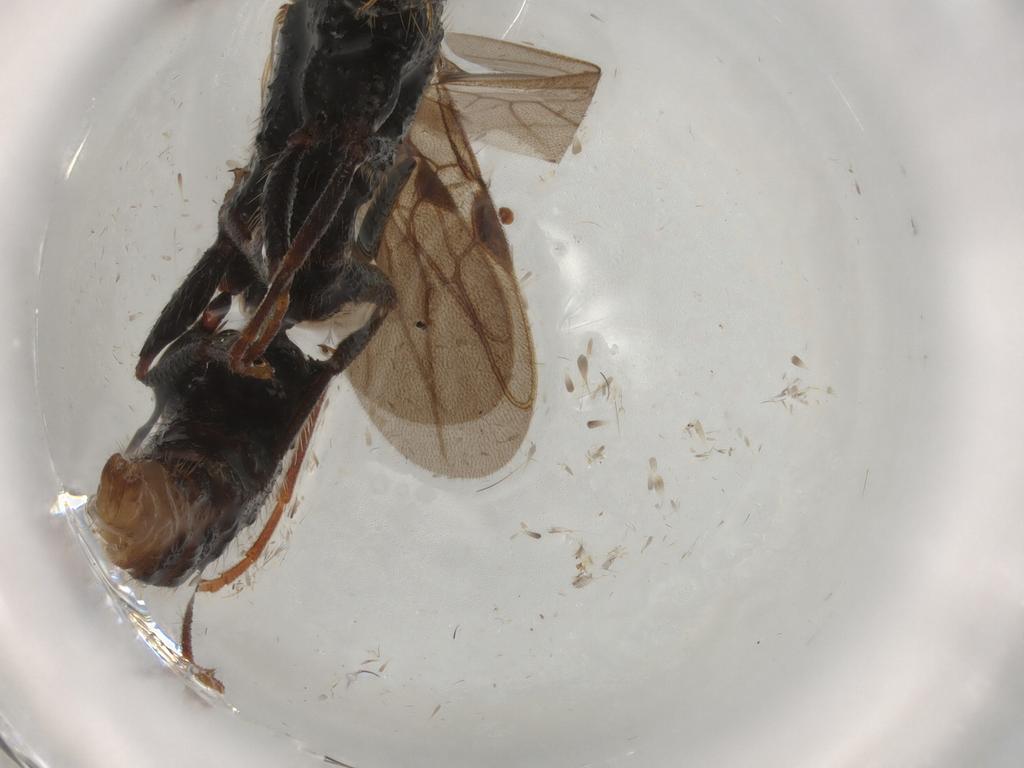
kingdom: Animalia
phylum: Arthropoda
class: Insecta
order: Hymenoptera
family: Formicidae
